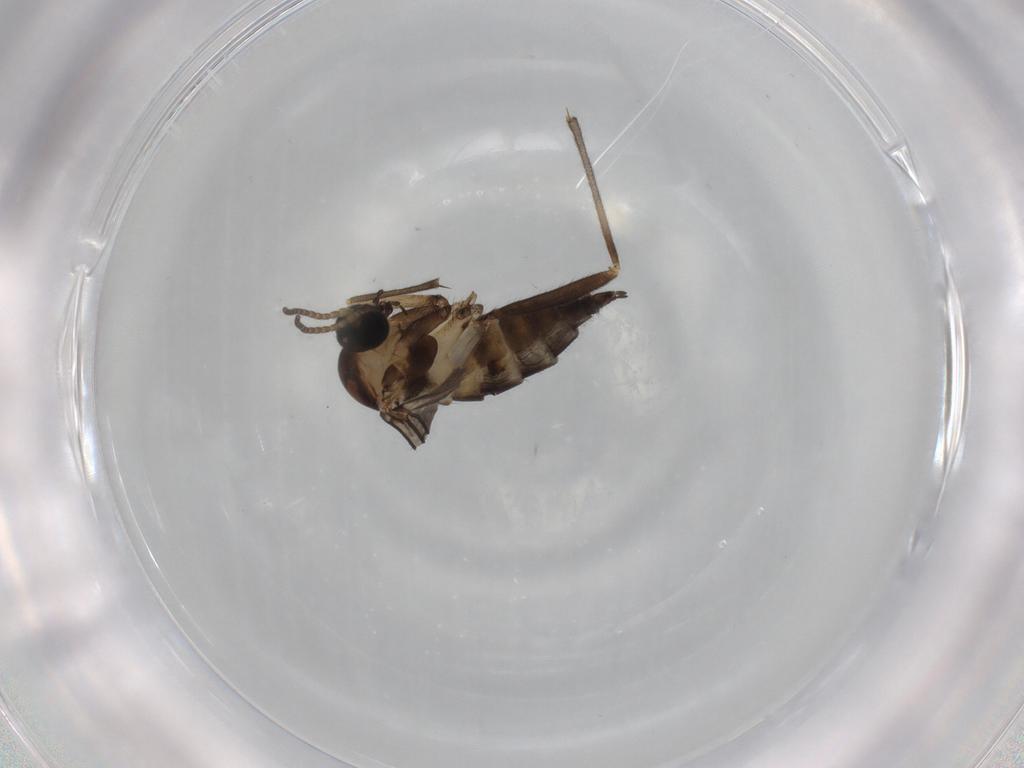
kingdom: Animalia
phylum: Arthropoda
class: Insecta
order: Diptera
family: Sciaridae
